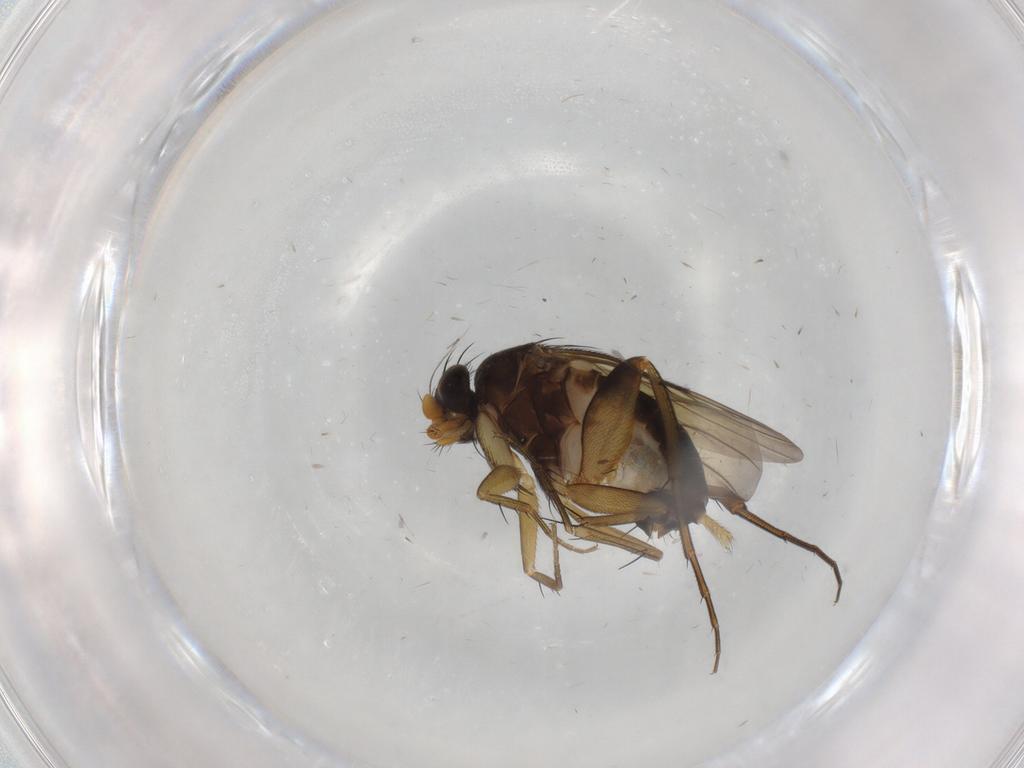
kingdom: Animalia
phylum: Arthropoda
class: Insecta
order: Diptera
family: Phoridae
